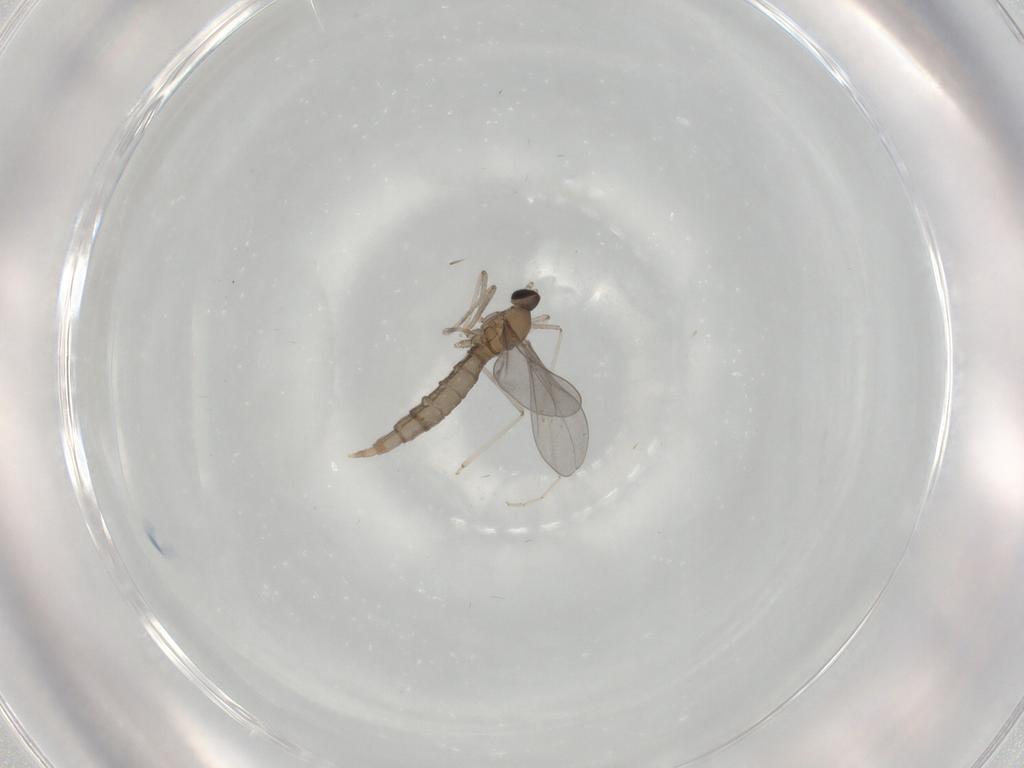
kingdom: Animalia
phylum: Arthropoda
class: Insecta
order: Diptera
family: Cecidomyiidae
